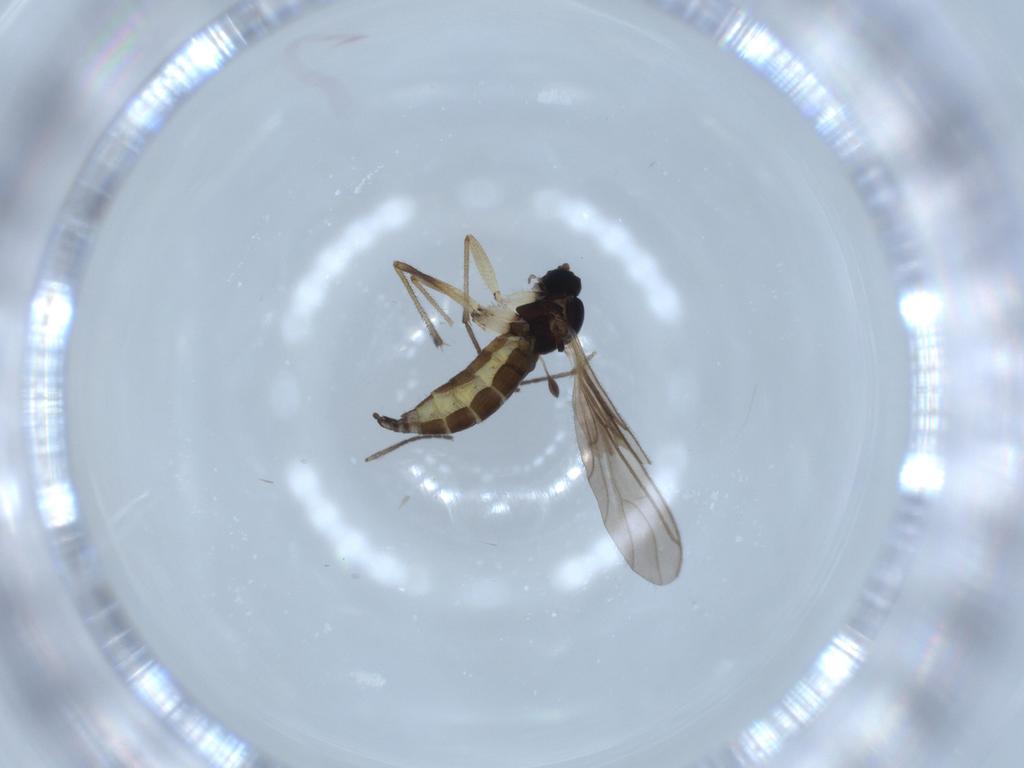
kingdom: Animalia
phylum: Arthropoda
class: Insecta
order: Diptera
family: Sciaridae
